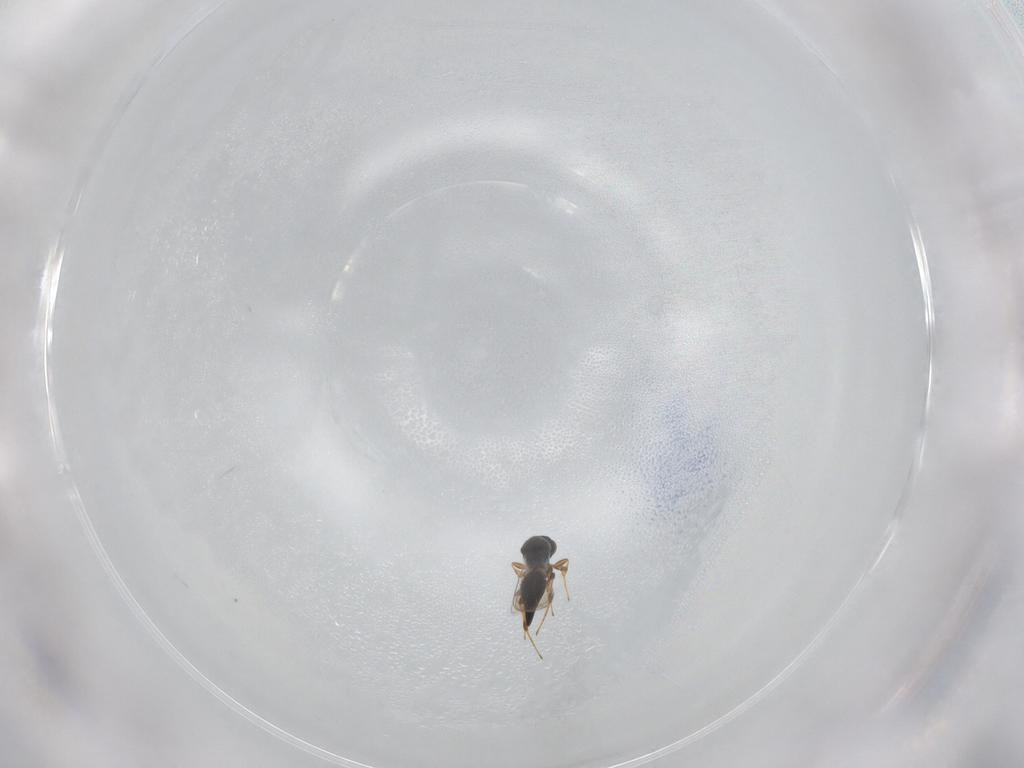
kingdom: Animalia
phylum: Arthropoda
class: Insecta
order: Hymenoptera
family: Platygastridae
